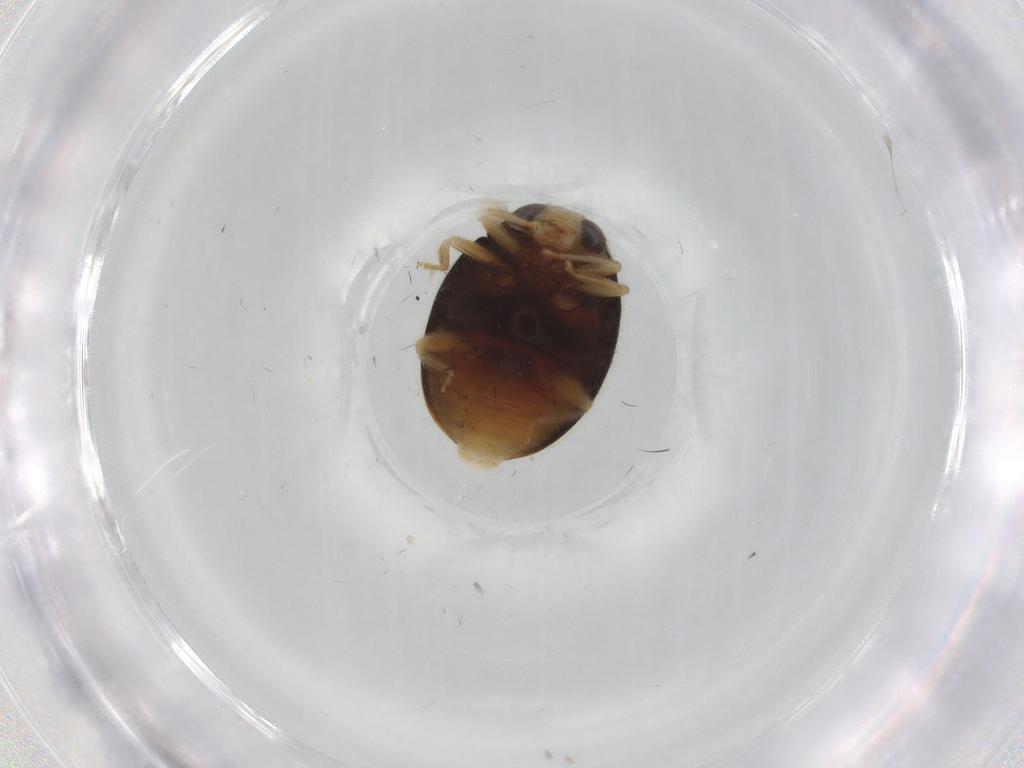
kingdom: Animalia
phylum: Arthropoda
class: Insecta
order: Coleoptera
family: Coccinellidae
